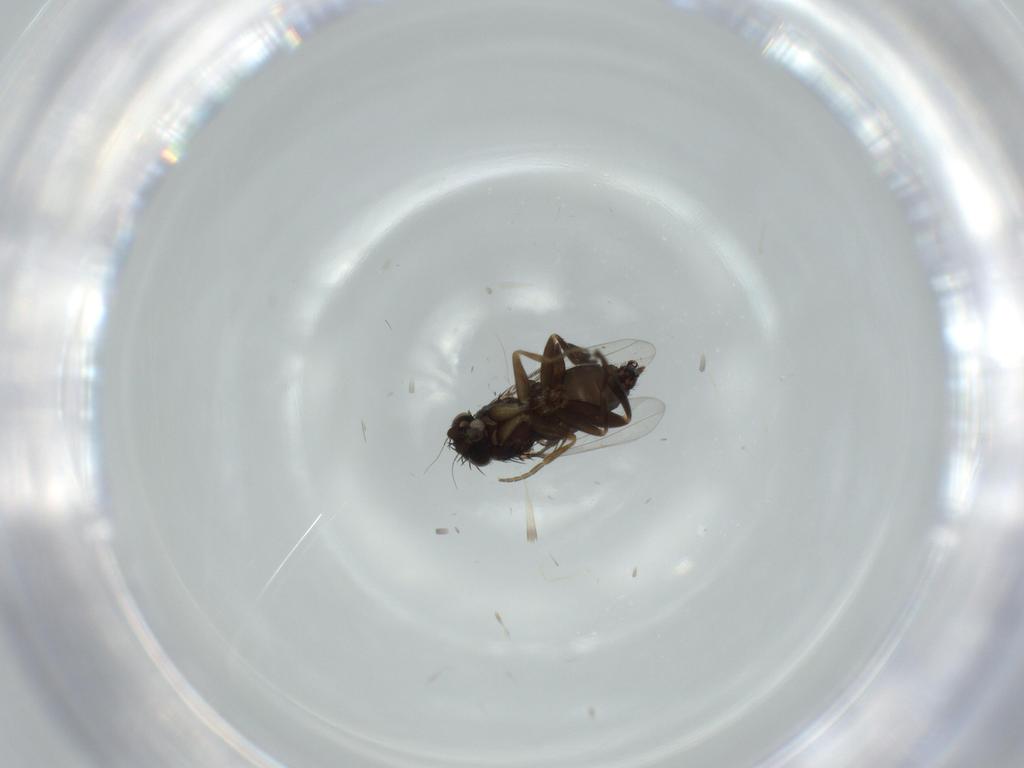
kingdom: Animalia
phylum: Arthropoda
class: Insecta
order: Diptera
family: Phoridae
